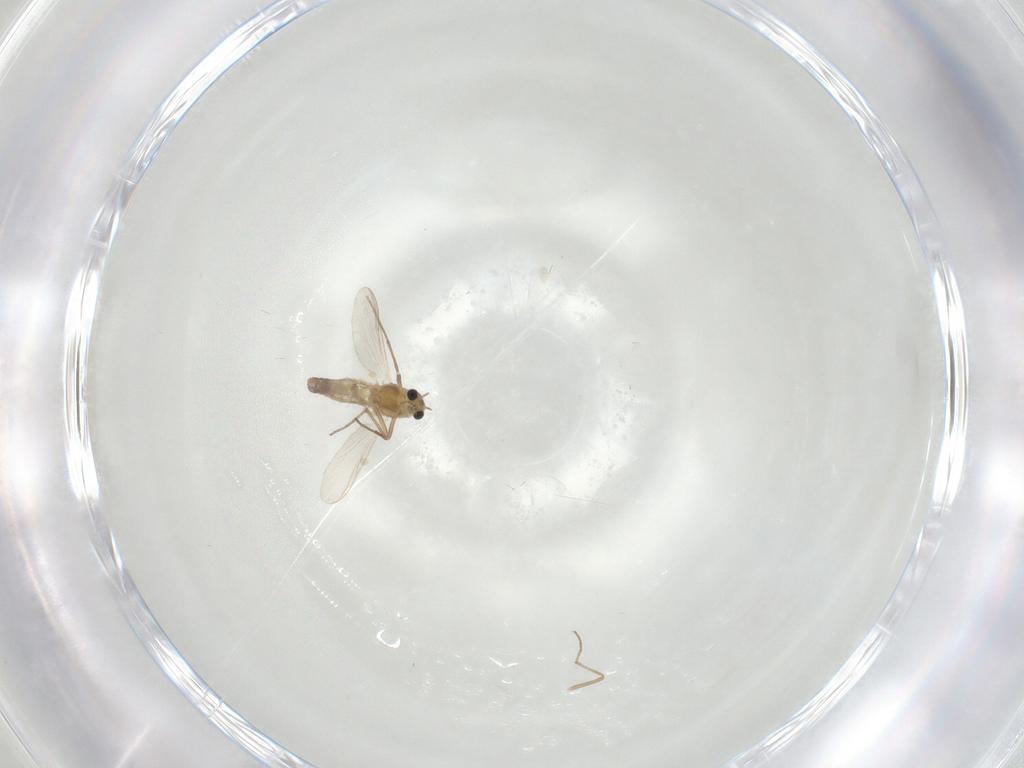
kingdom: Animalia
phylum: Arthropoda
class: Insecta
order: Diptera
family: Chironomidae
